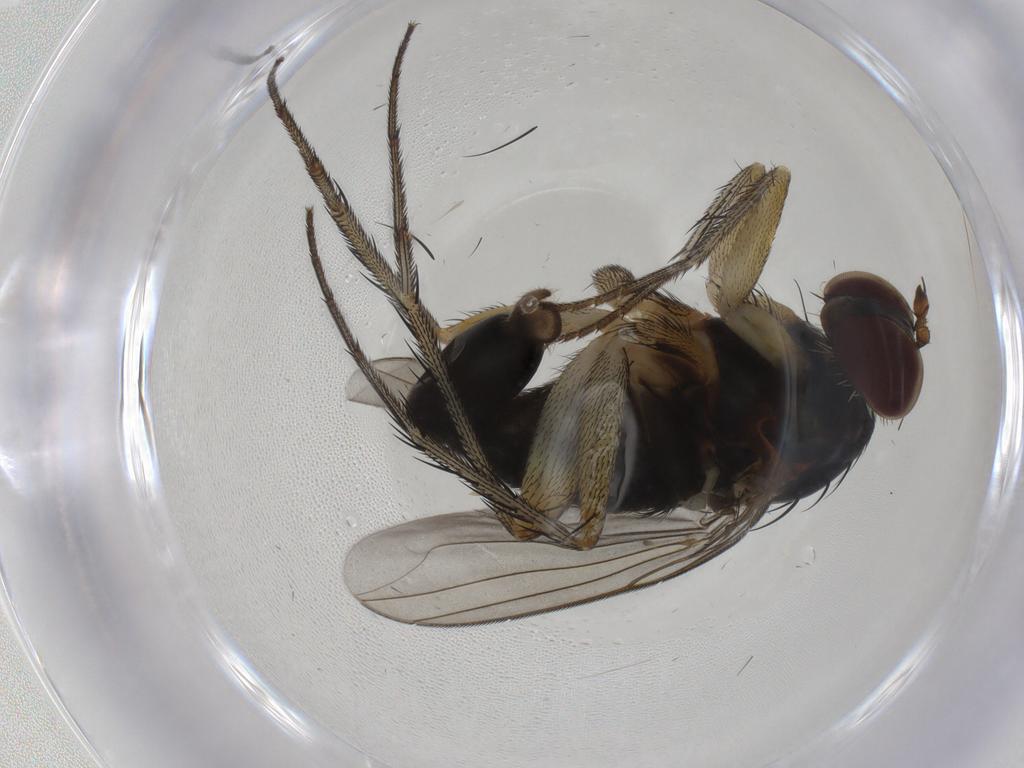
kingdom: Animalia
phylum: Arthropoda
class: Insecta
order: Diptera
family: Dolichopodidae
